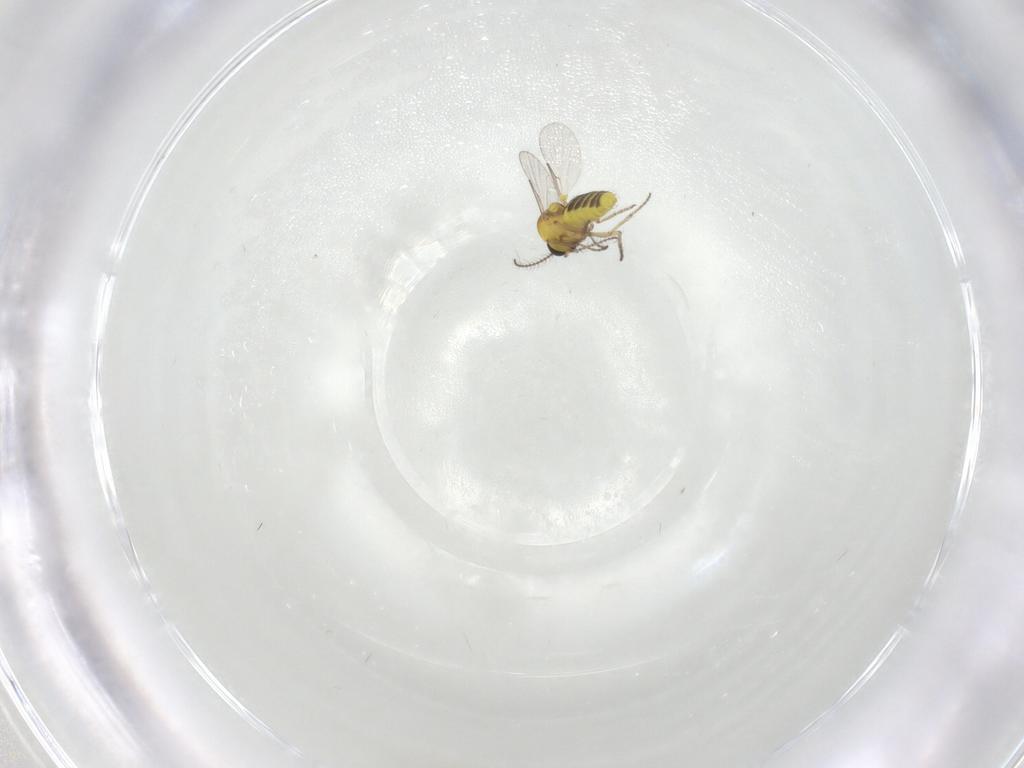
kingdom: Animalia
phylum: Arthropoda
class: Insecta
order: Diptera
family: Ceratopogonidae
